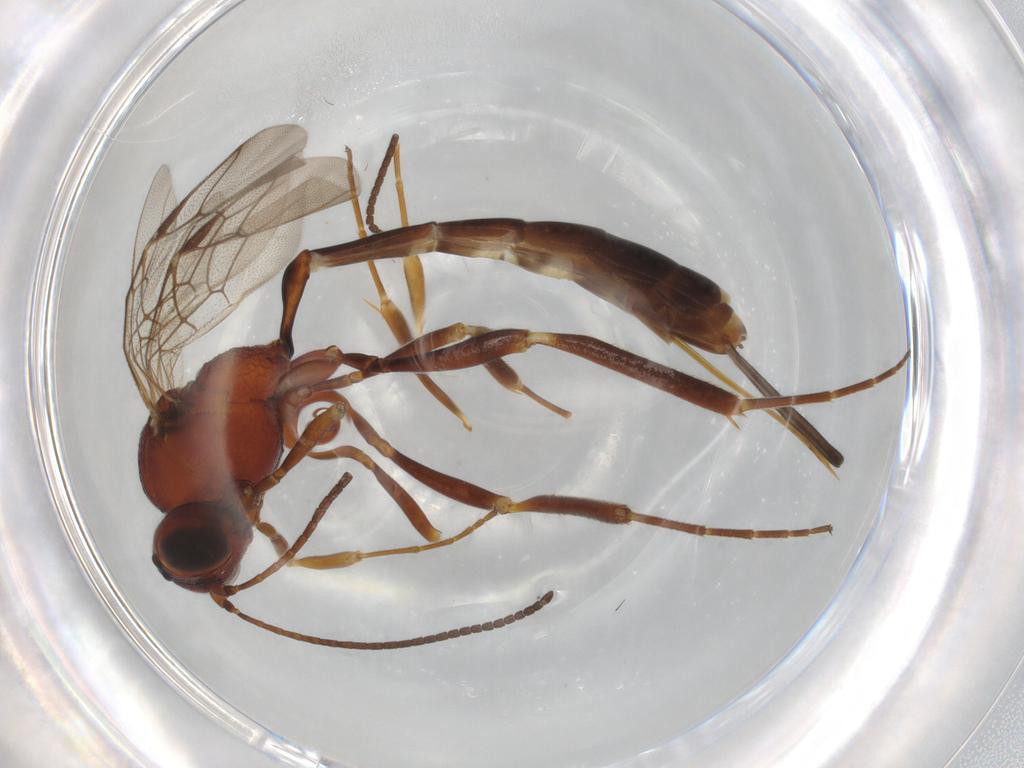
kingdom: Animalia
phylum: Arthropoda
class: Insecta
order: Hymenoptera
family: Ichneumonidae
